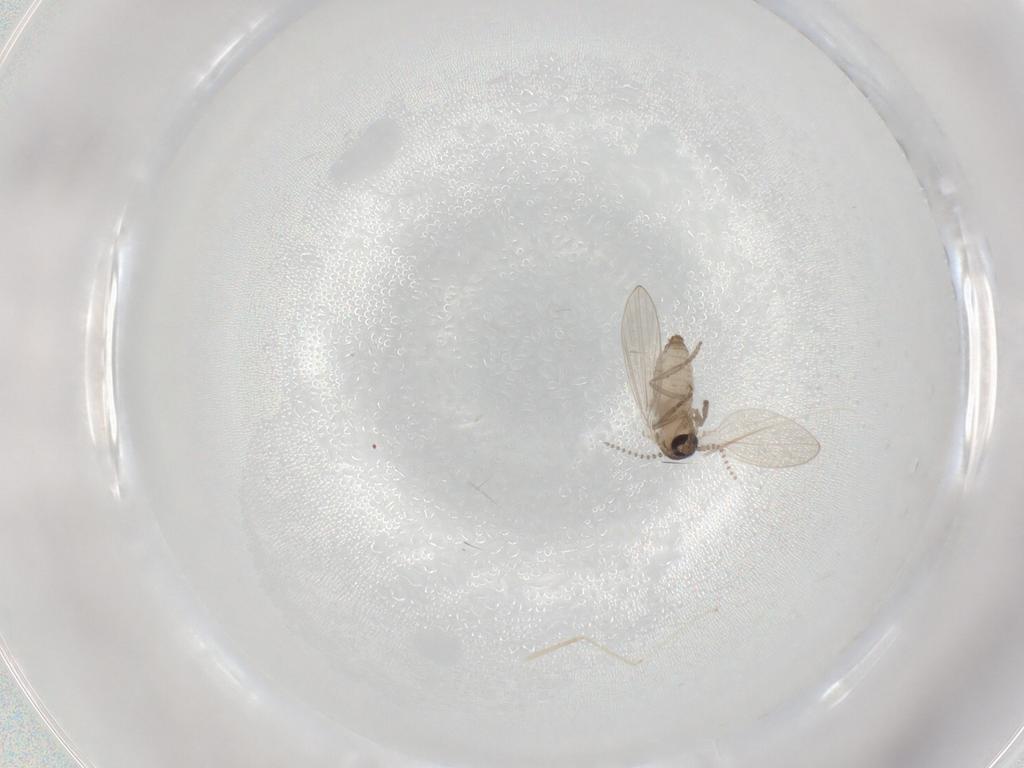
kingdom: Animalia
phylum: Arthropoda
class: Insecta
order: Diptera
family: Psychodidae
